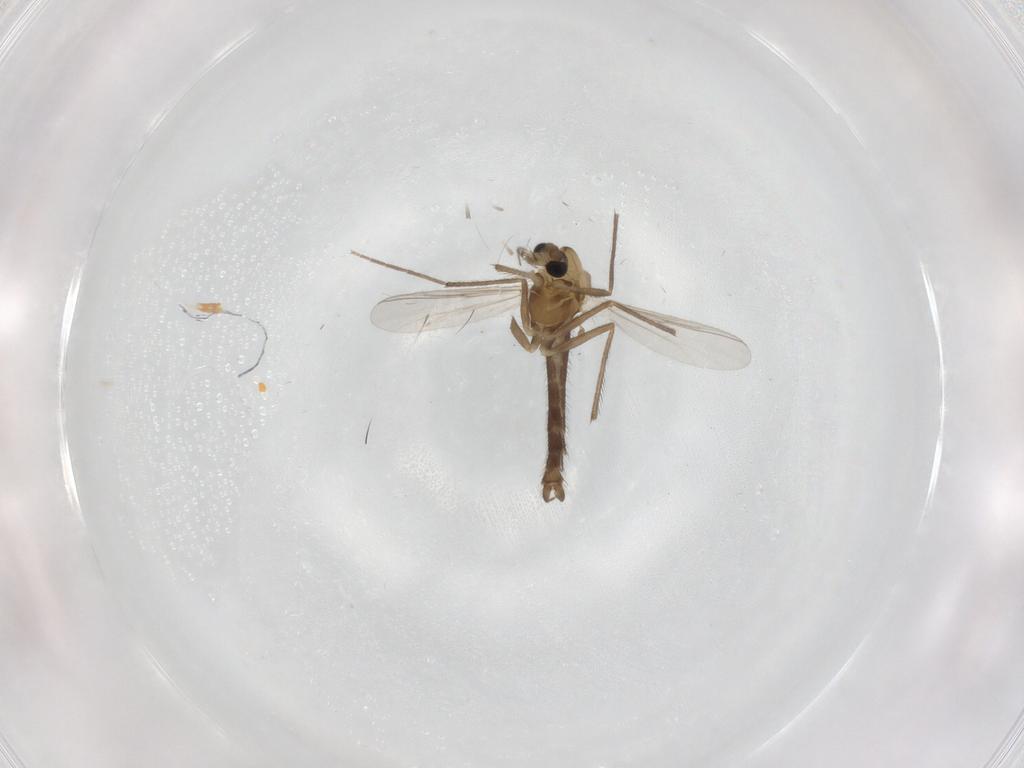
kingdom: Animalia
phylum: Arthropoda
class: Insecta
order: Diptera
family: Chironomidae
